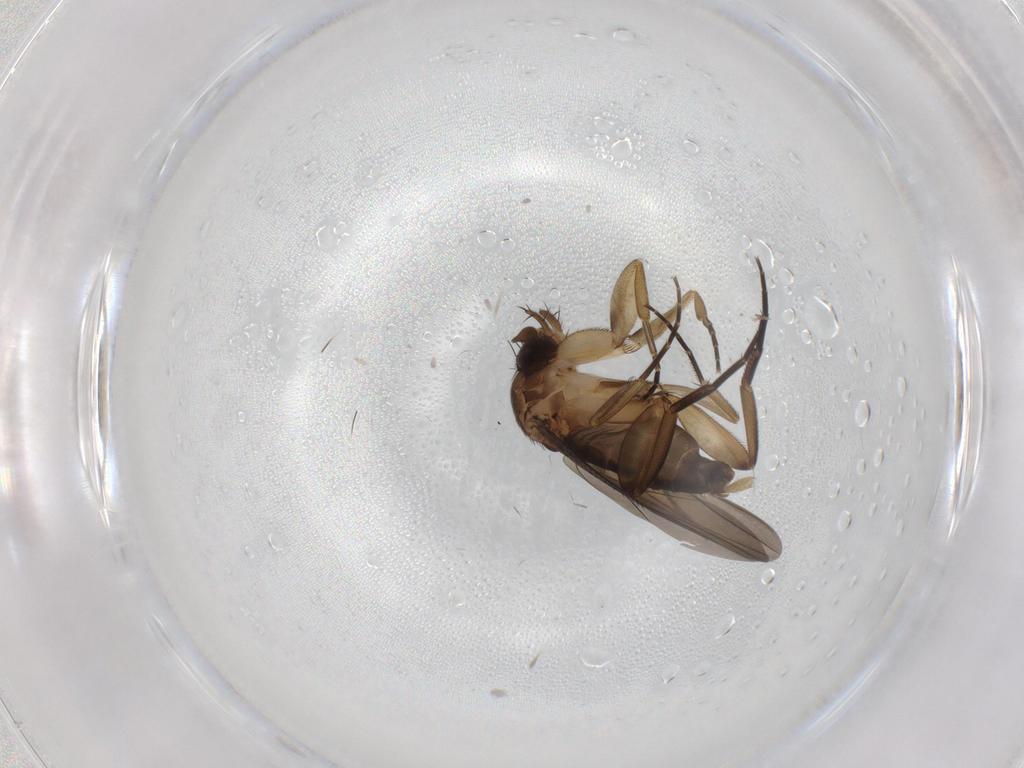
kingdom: Animalia
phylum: Arthropoda
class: Insecta
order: Diptera
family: Phoridae
